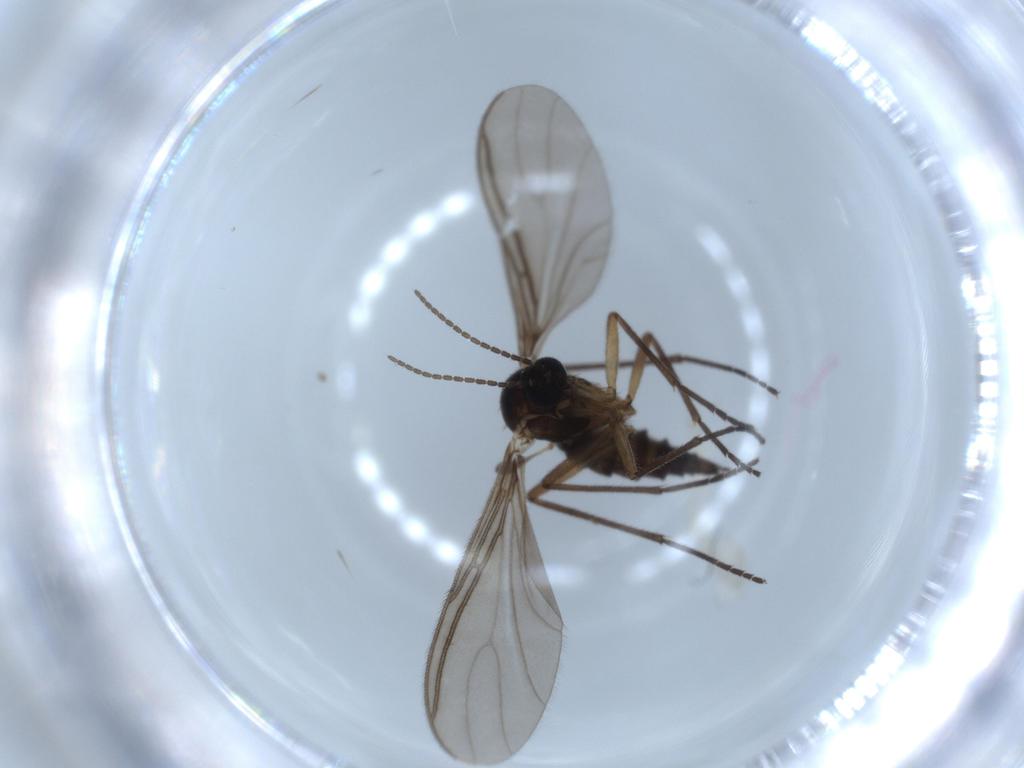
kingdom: Animalia
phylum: Arthropoda
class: Insecta
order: Diptera
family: Sciaridae
